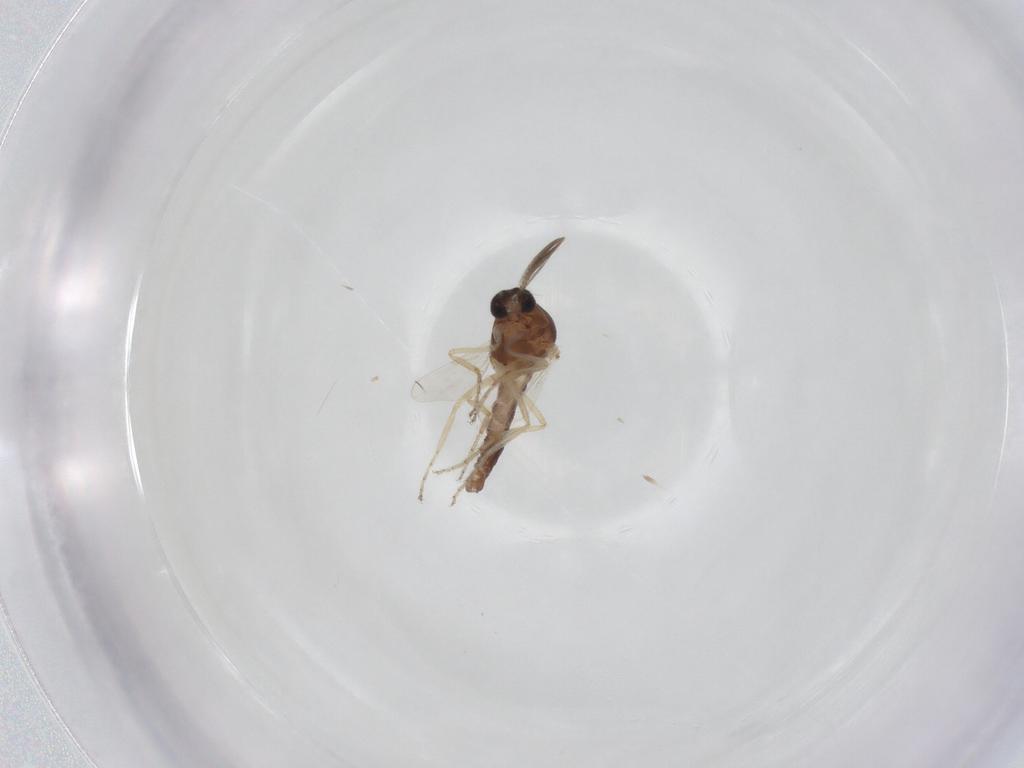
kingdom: Animalia
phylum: Arthropoda
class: Insecta
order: Diptera
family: Ceratopogonidae
